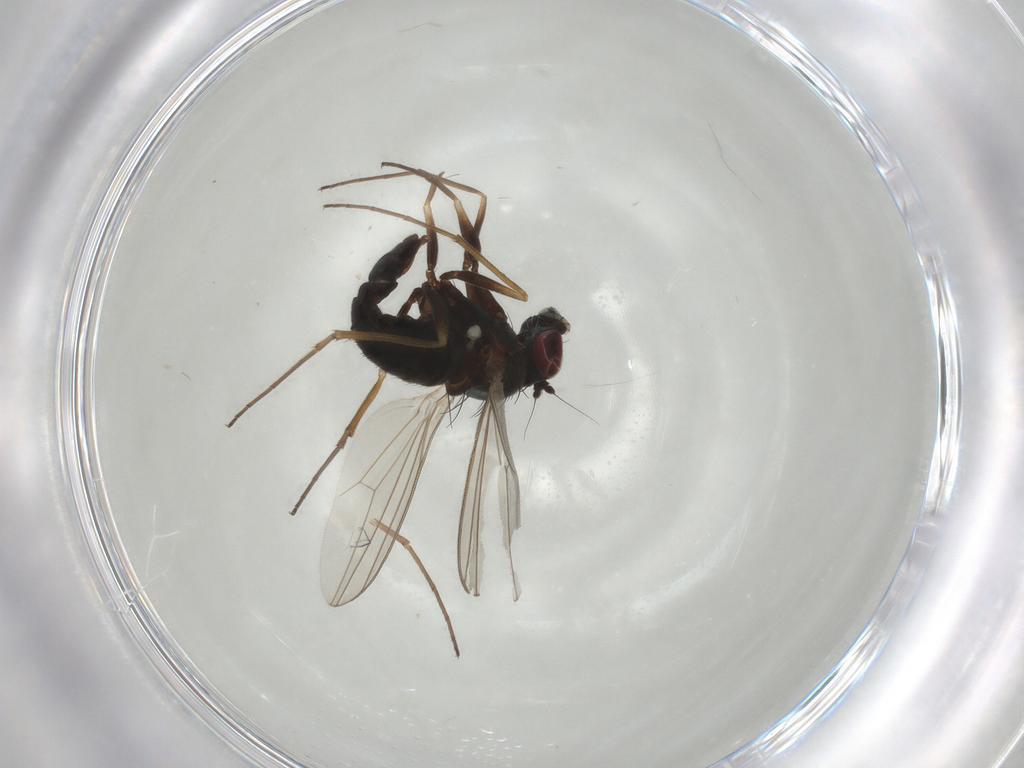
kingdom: Animalia
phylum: Arthropoda
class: Insecta
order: Diptera
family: Dolichopodidae
